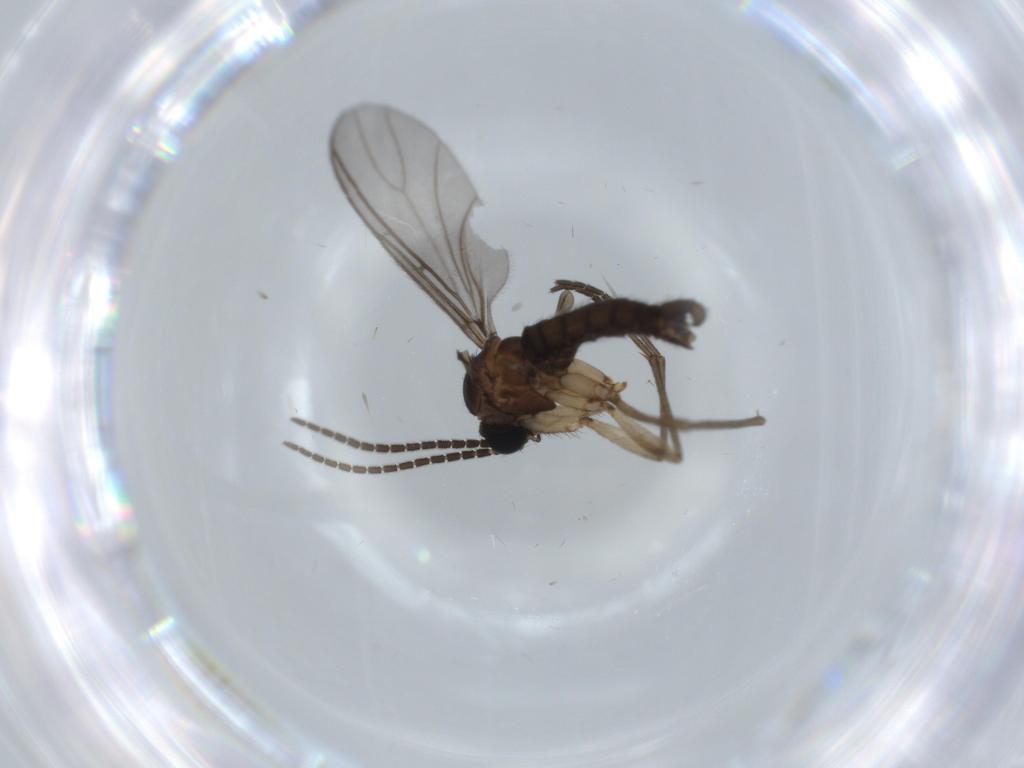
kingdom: Animalia
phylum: Arthropoda
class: Insecta
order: Diptera
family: Sciaridae
